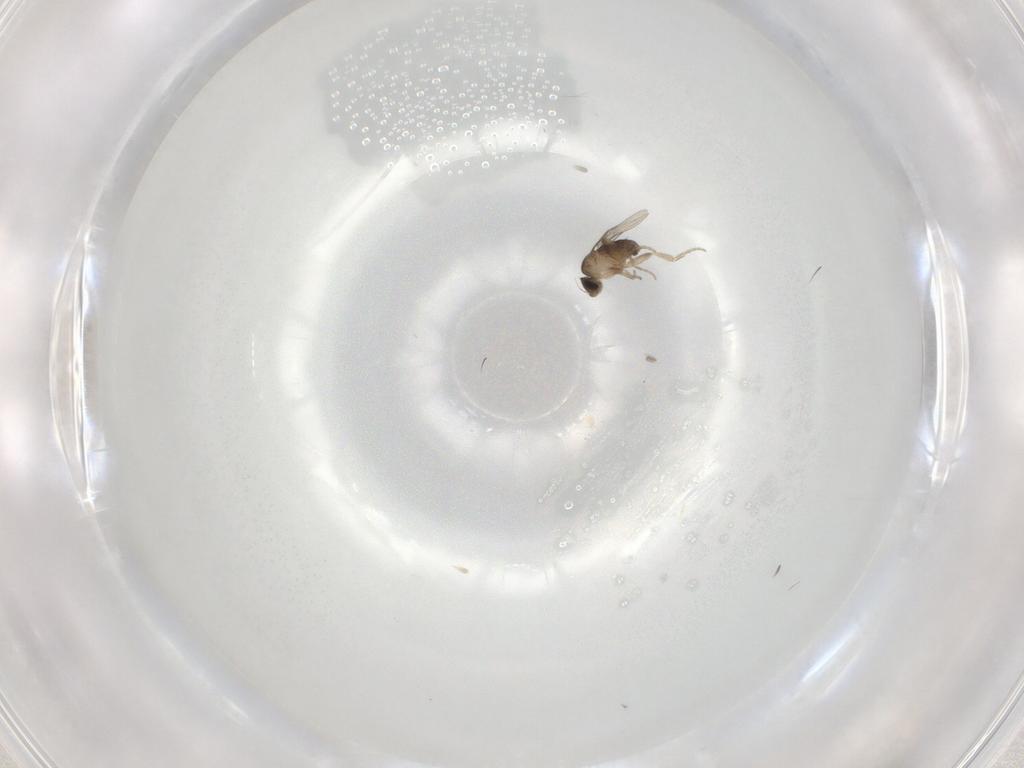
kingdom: Animalia
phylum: Arthropoda
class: Insecta
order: Diptera
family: Phoridae
